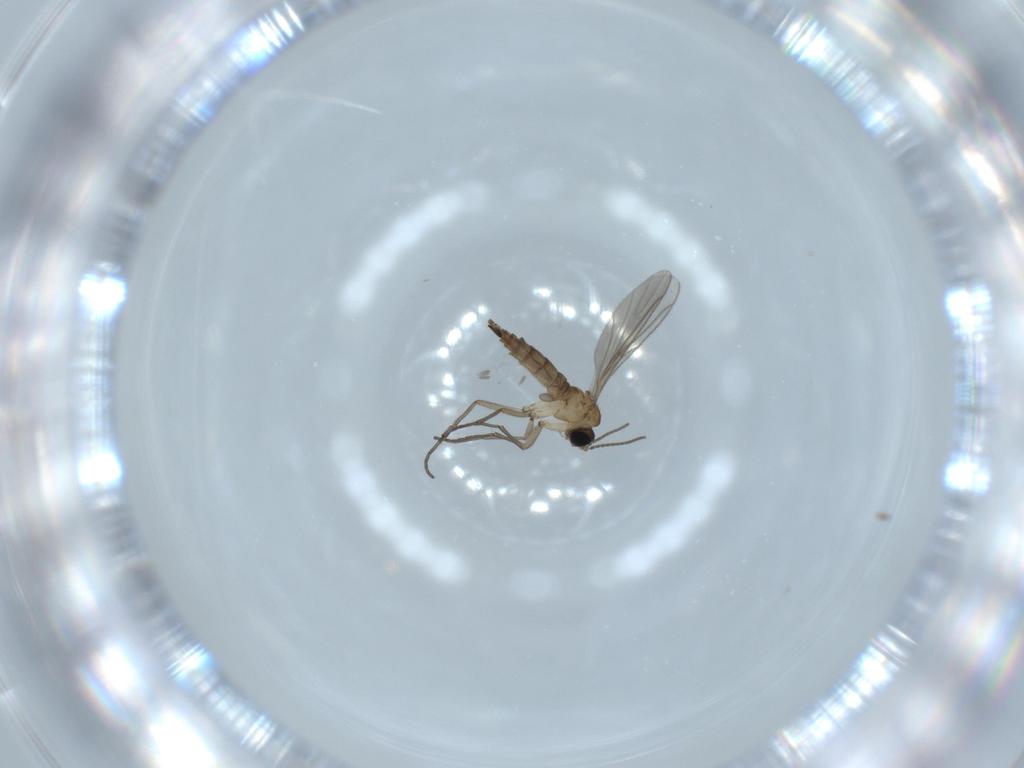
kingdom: Animalia
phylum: Arthropoda
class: Insecta
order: Diptera
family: Sciaridae
